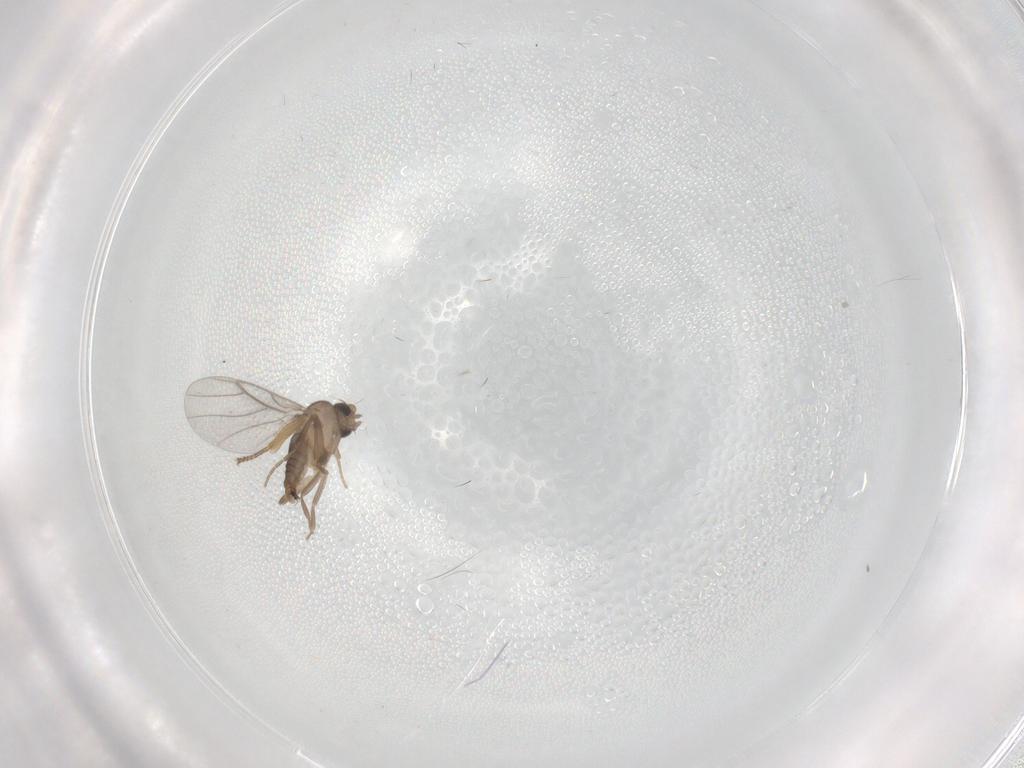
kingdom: Animalia
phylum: Arthropoda
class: Insecta
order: Diptera
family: Periscelididae
